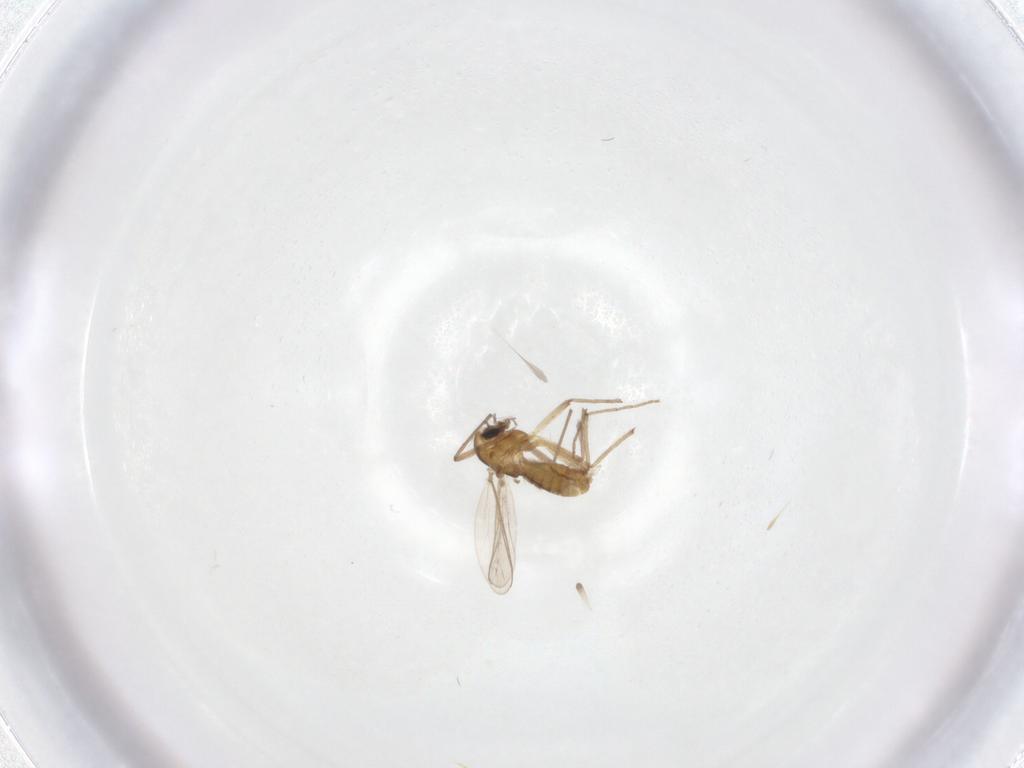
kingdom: Animalia
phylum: Arthropoda
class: Insecta
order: Diptera
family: Chironomidae
